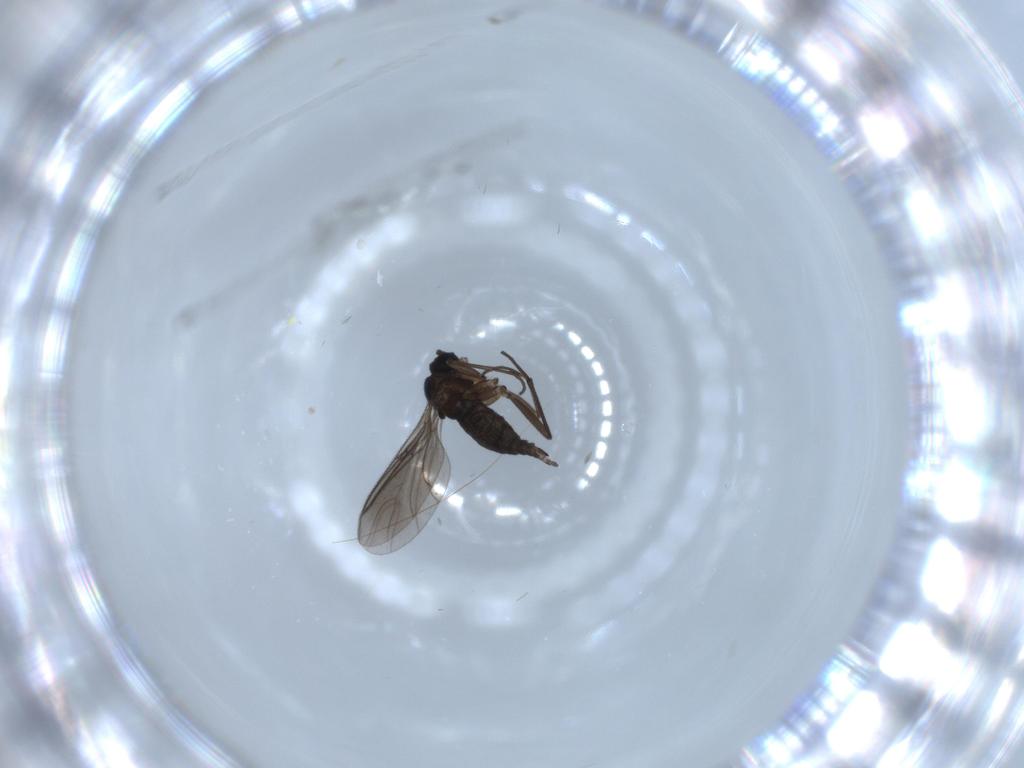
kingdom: Animalia
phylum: Arthropoda
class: Insecta
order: Diptera
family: Sciaridae
